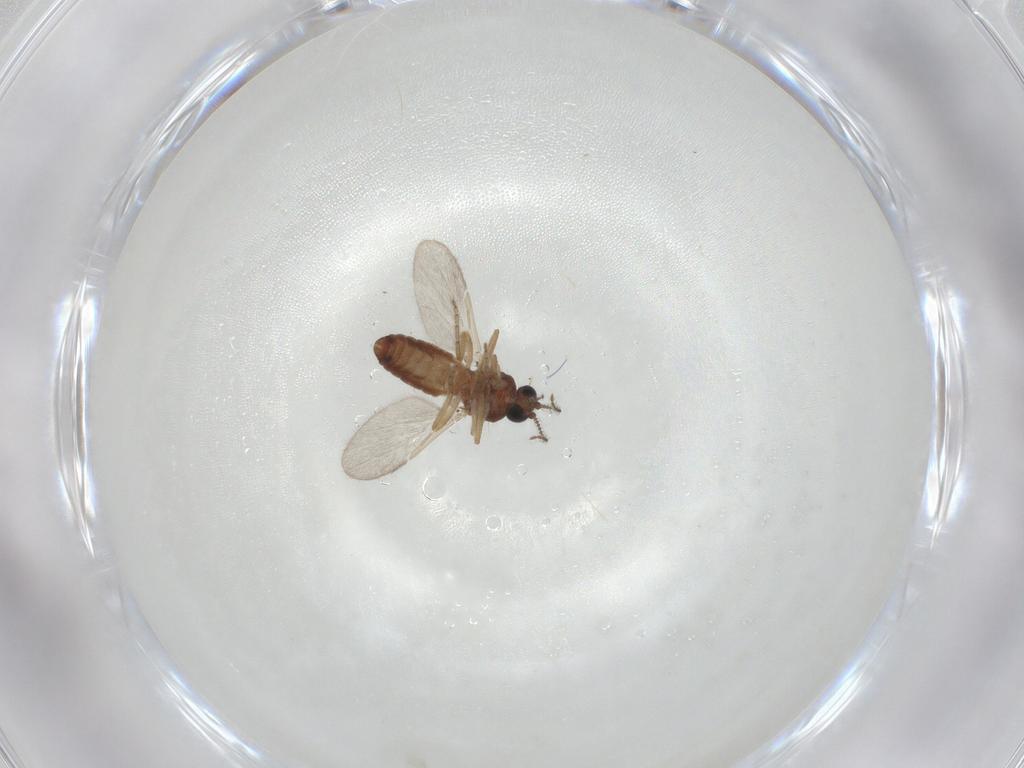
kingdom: Animalia
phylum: Arthropoda
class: Insecta
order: Diptera
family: Ceratopogonidae
